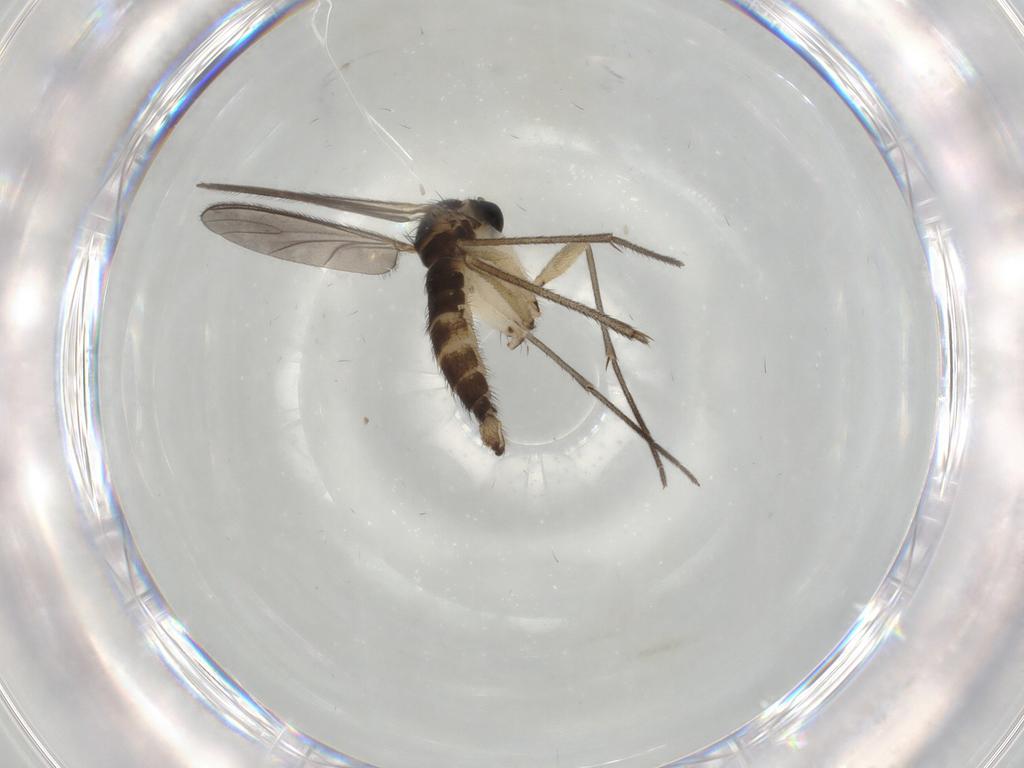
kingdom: Animalia
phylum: Arthropoda
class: Insecta
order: Diptera
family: Sciaridae
